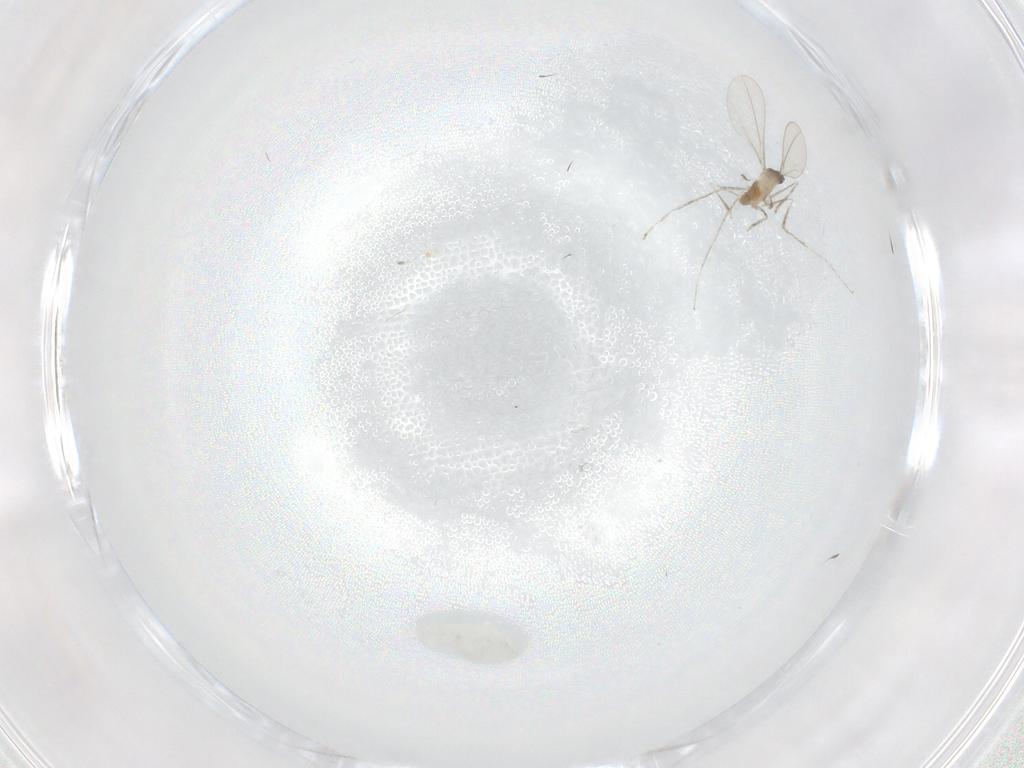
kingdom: Animalia
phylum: Arthropoda
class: Insecta
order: Diptera
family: Cecidomyiidae
